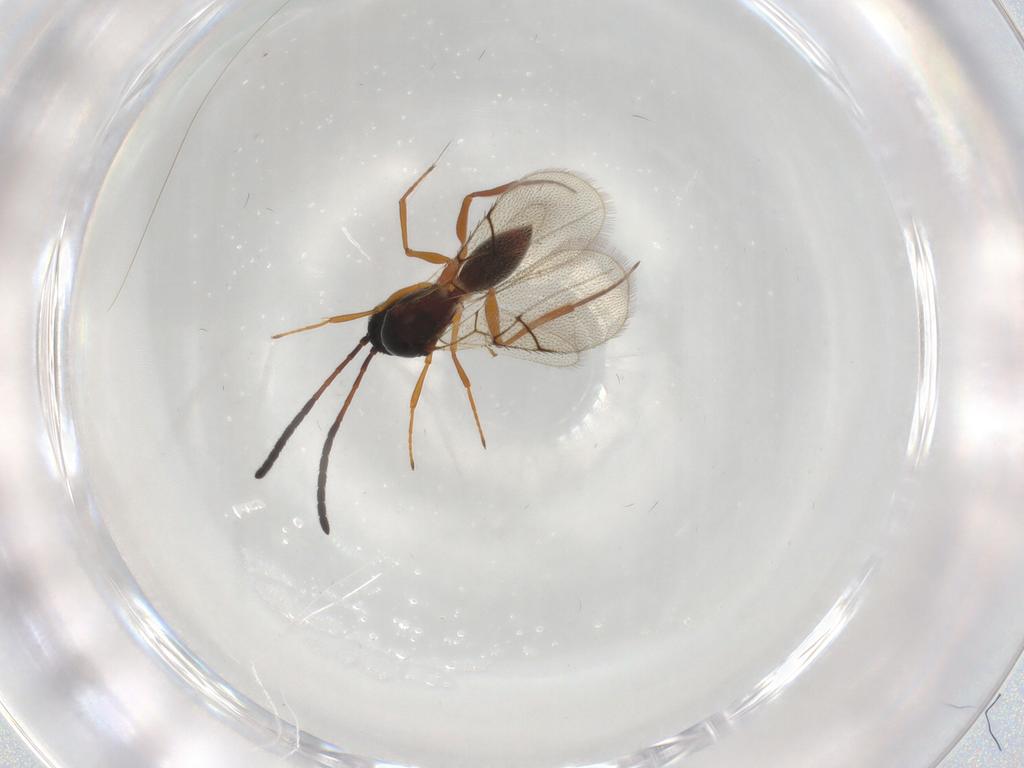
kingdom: Animalia
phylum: Arthropoda
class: Insecta
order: Hymenoptera
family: Figitidae
